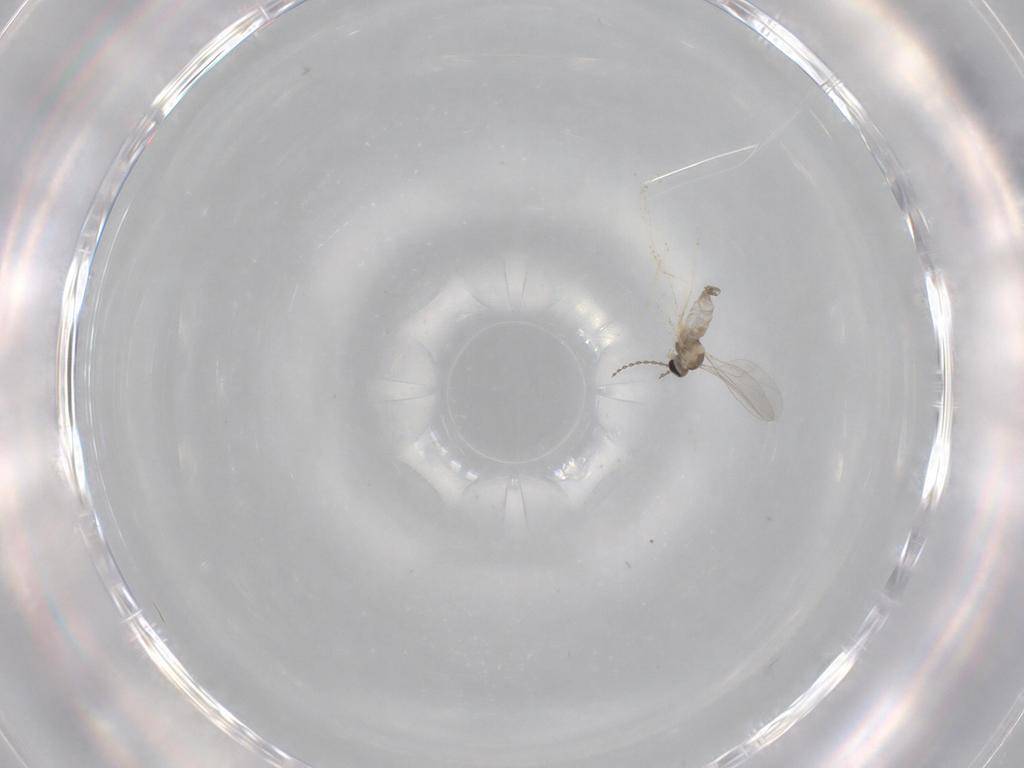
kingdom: Animalia
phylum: Arthropoda
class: Insecta
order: Diptera
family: Cecidomyiidae
